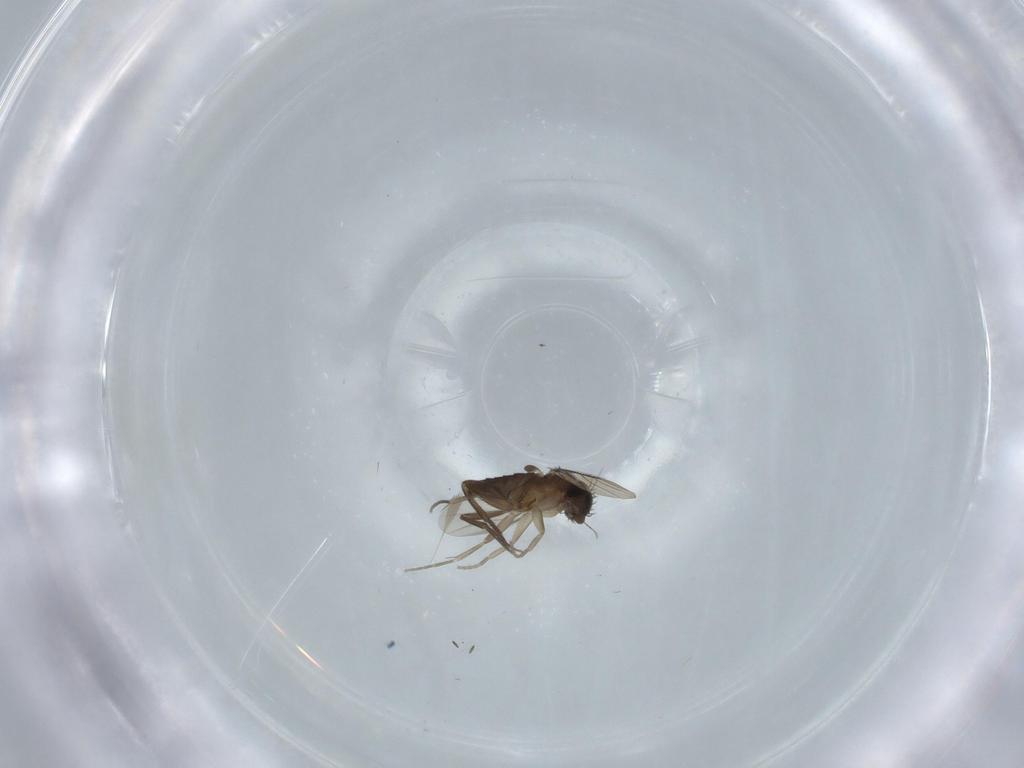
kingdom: Animalia
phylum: Arthropoda
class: Insecta
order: Diptera
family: Phoridae
